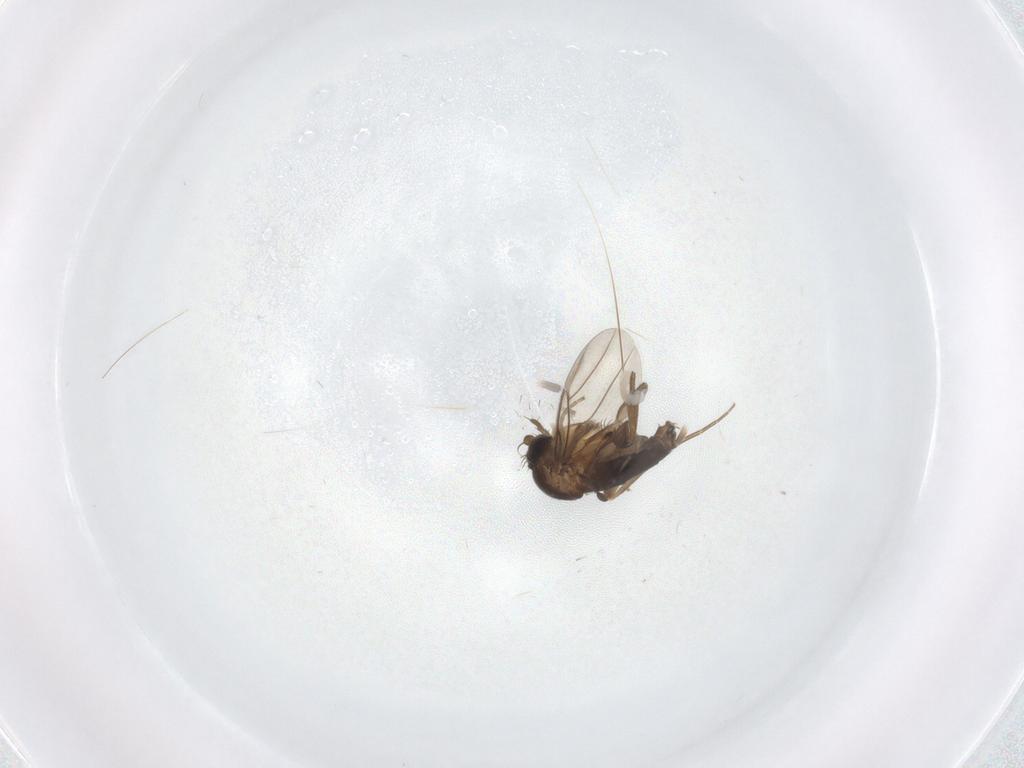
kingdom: Animalia
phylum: Arthropoda
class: Insecta
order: Diptera
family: Phoridae
